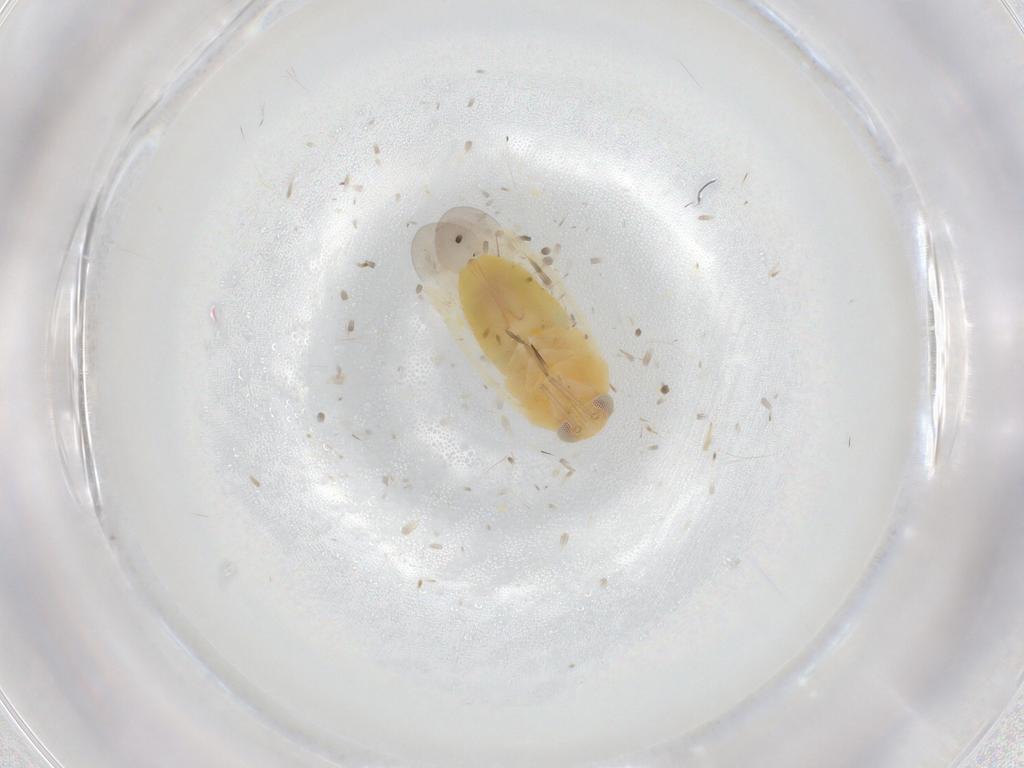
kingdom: Animalia
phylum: Arthropoda
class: Insecta
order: Hemiptera
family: Miridae
